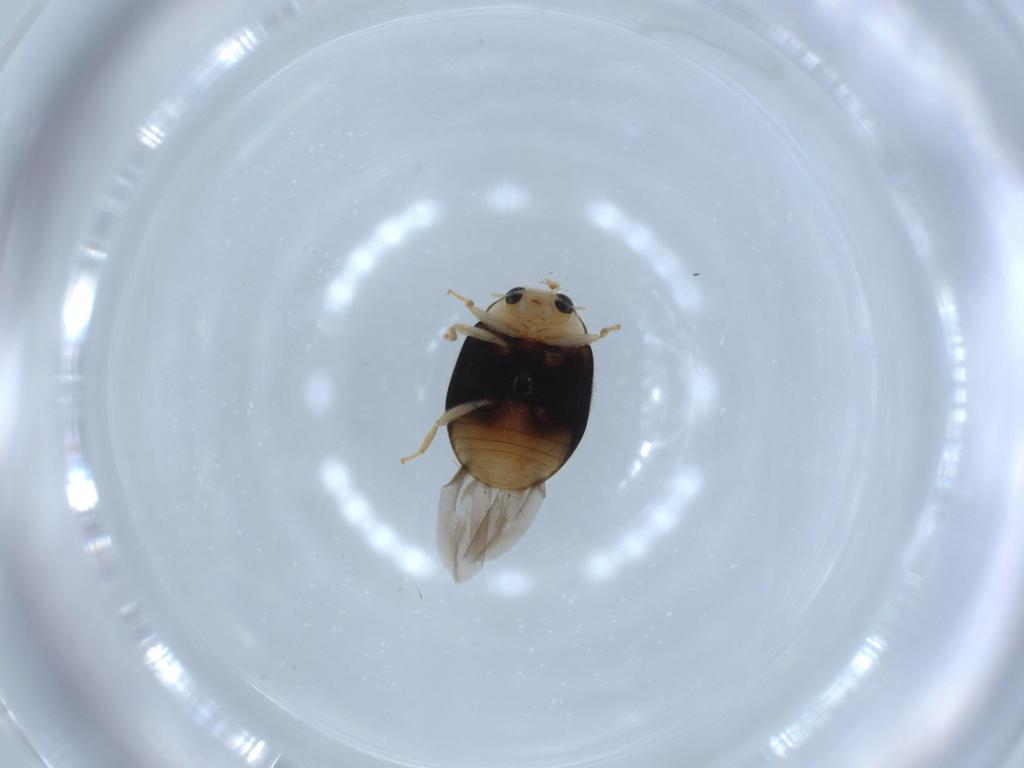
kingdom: Animalia
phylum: Arthropoda
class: Insecta
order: Coleoptera
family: Coccinellidae
